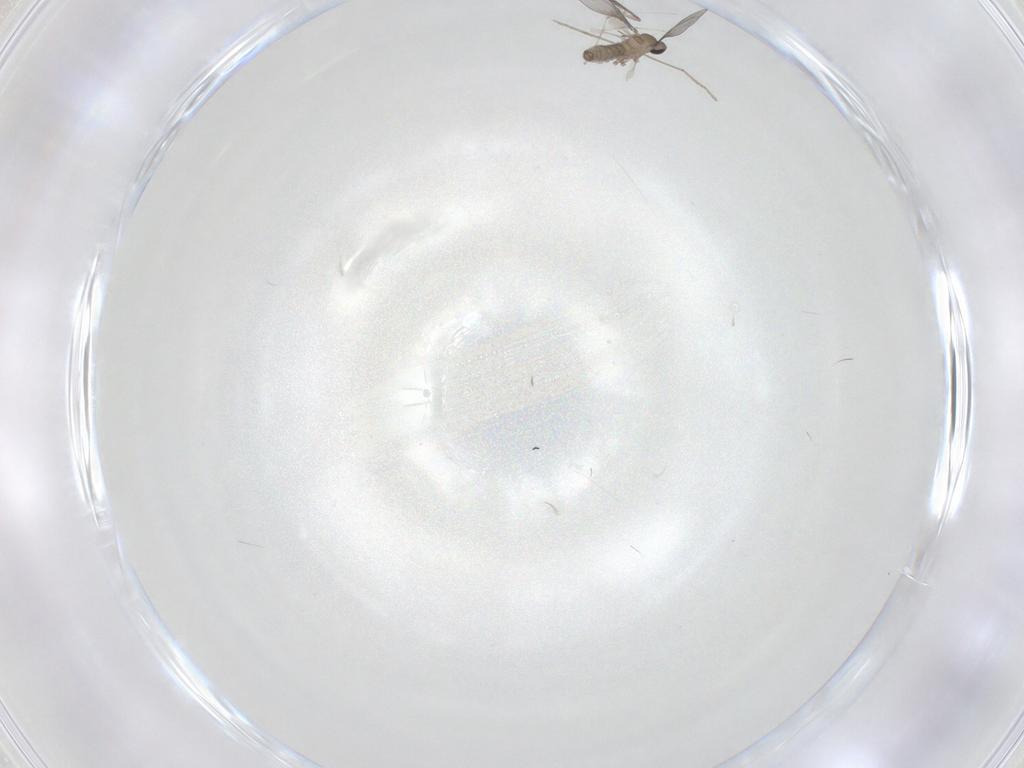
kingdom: Animalia
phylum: Arthropoda
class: Insecta
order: Diptera
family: Cecidomyiidae
